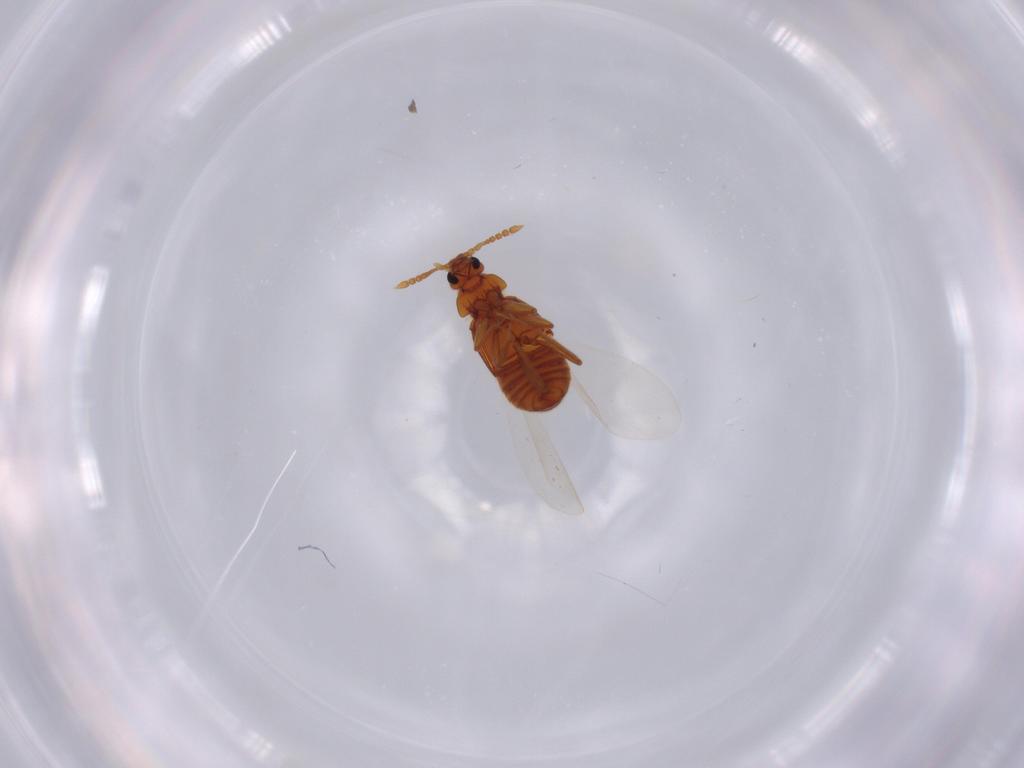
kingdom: Animalia
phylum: Arthropoda
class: Insecta
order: Coleoptera
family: Staphylinidae
